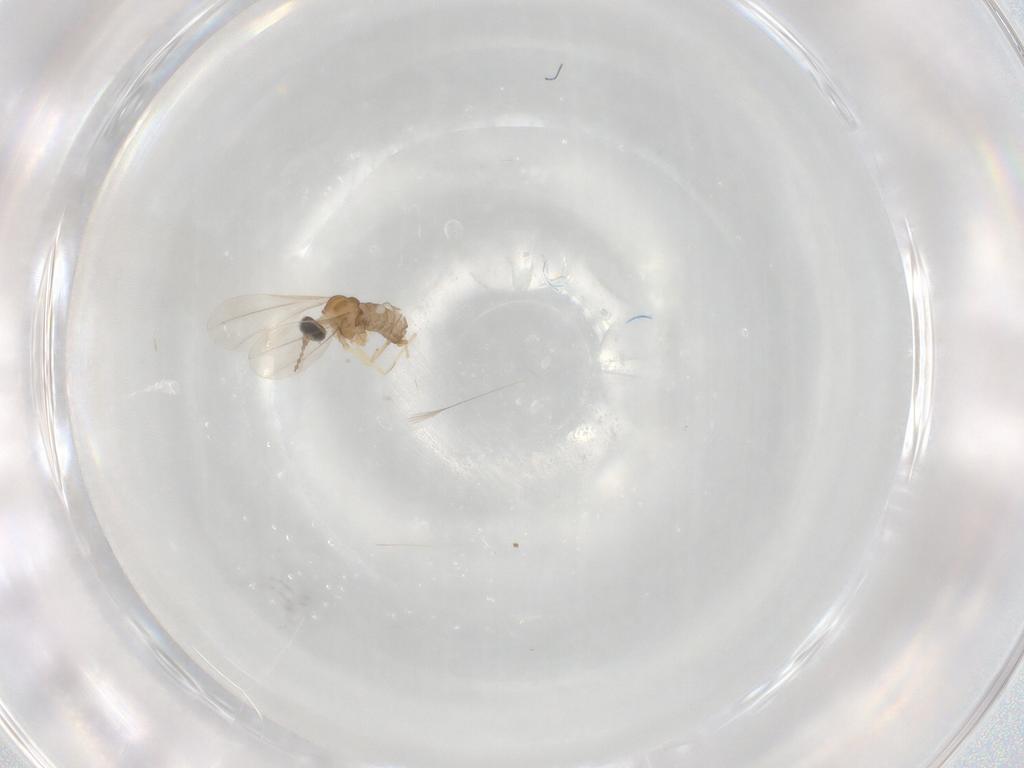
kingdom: Animalia
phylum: Arthropoda
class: Insecta
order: Diptera
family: Cecidomyiidae
